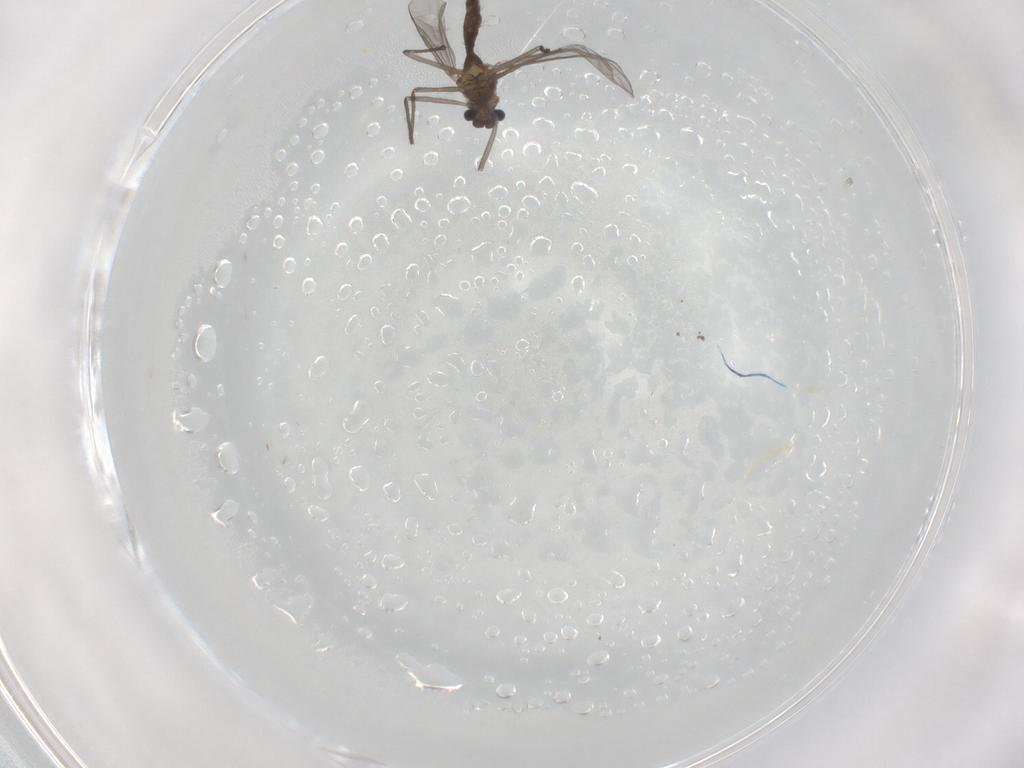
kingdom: Animalia
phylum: Arthropoda
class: Insecta
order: Diptera
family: Chironomidae
